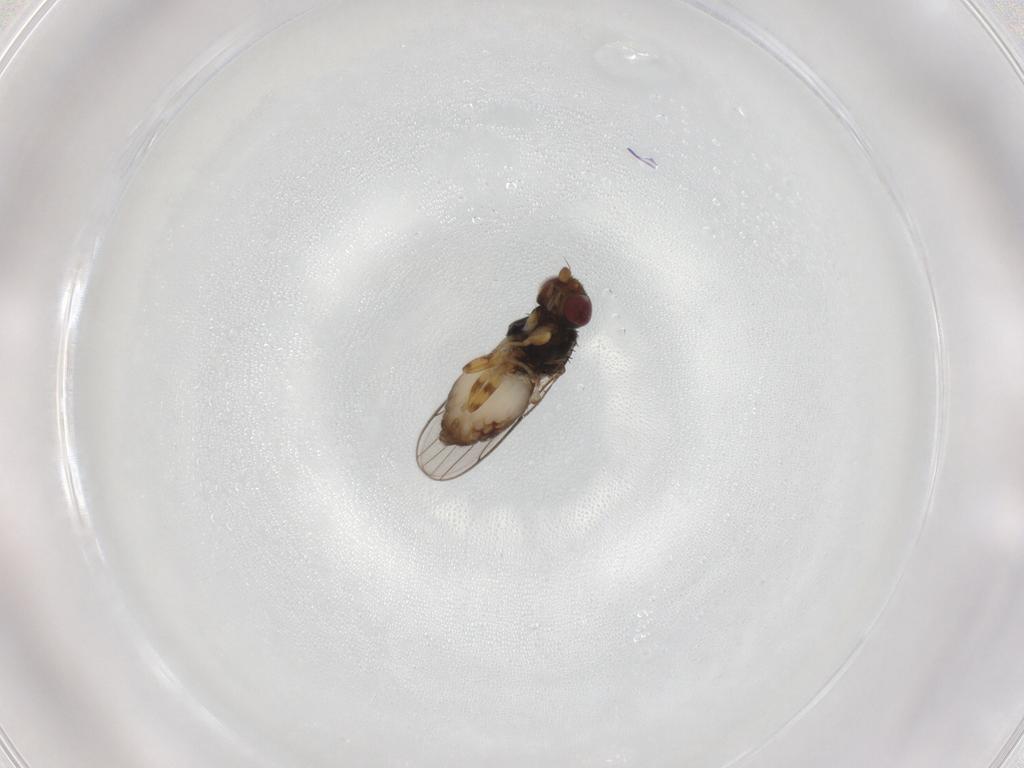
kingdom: Animalia
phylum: Arthropoda
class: Insecta
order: Diptera
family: Chloropidae
